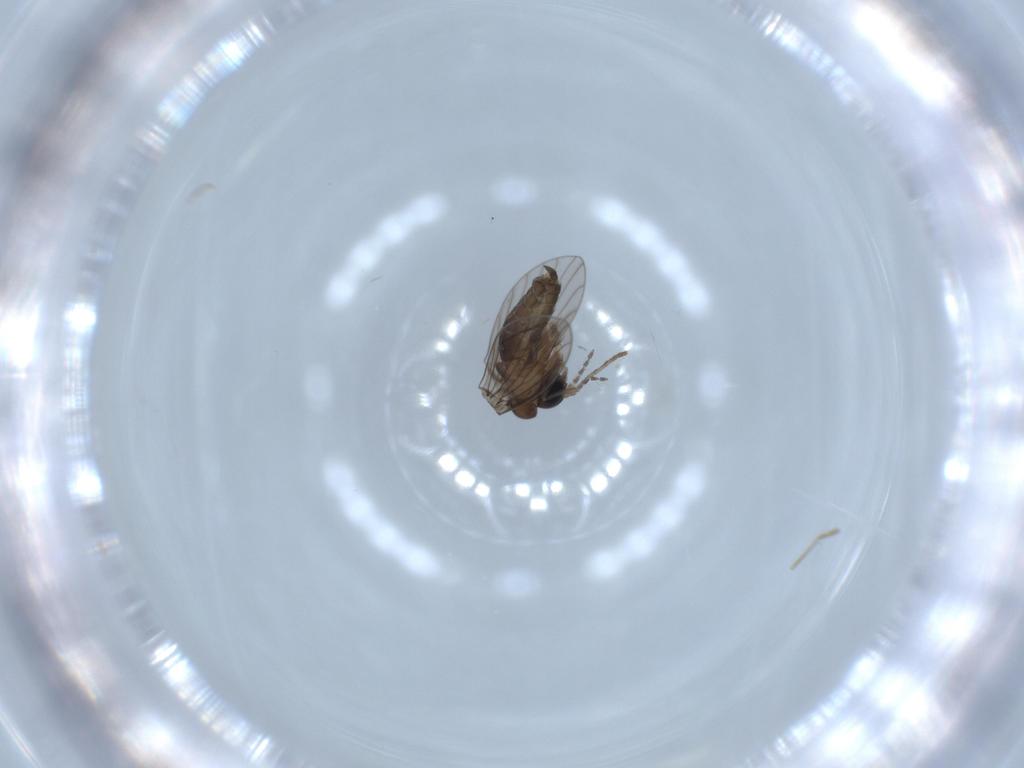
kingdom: Animalia
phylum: Arthropoda
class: Insecta
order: Diptera
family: Psychodidae
